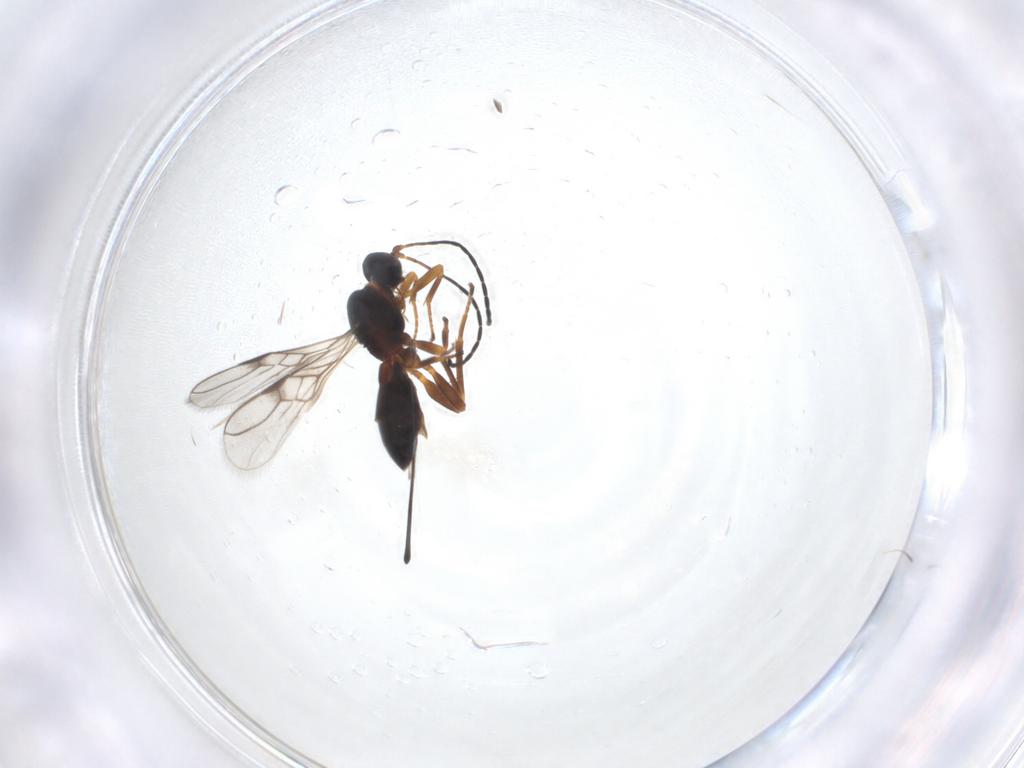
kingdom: Animalia
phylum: Arthropoda
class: Insecta
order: Hymenoptera
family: Braconidae
